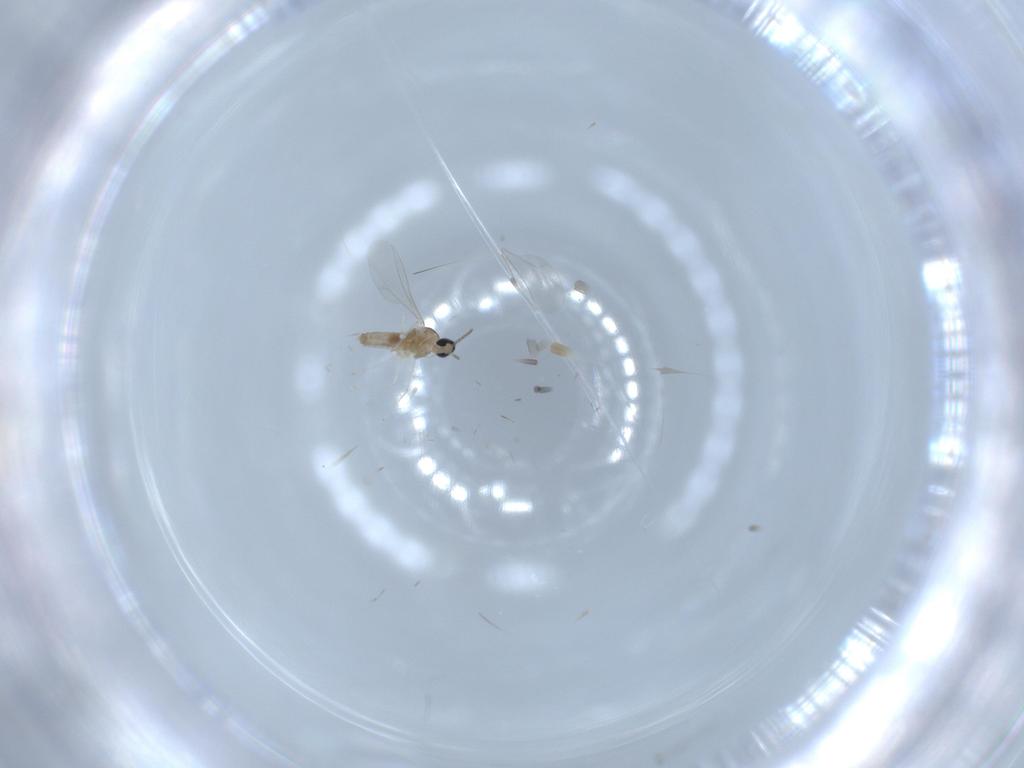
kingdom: Animalia
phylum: Arthropoda
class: Insecta
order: Diptera
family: Cecidomyiidae
